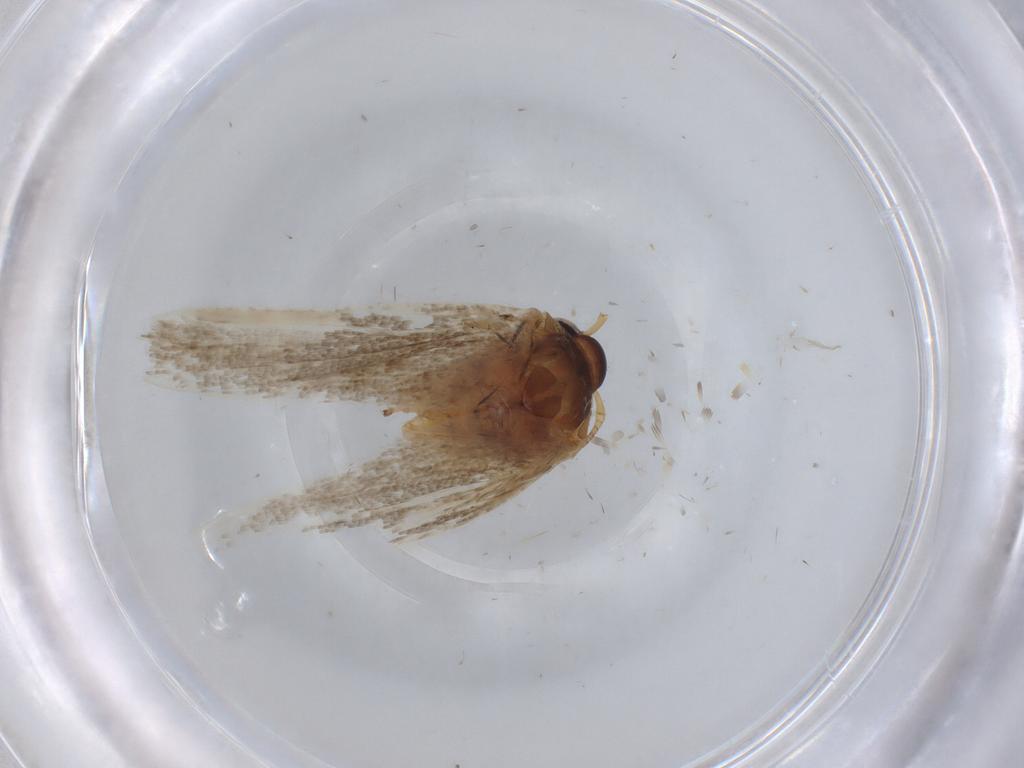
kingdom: Animalia
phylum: Arthropoda
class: Insecta
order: Lepidoptera
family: Blastobasidae
